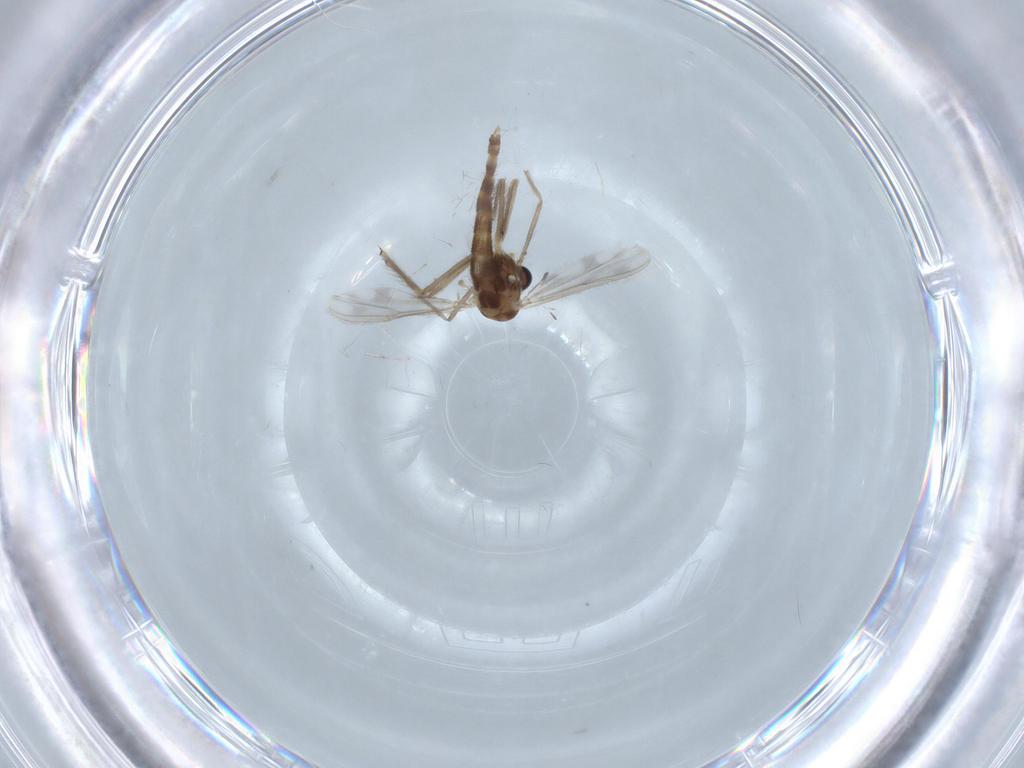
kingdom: Animalia
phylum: Arthropoda
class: Insecta
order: Diptera
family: Chironomidae
